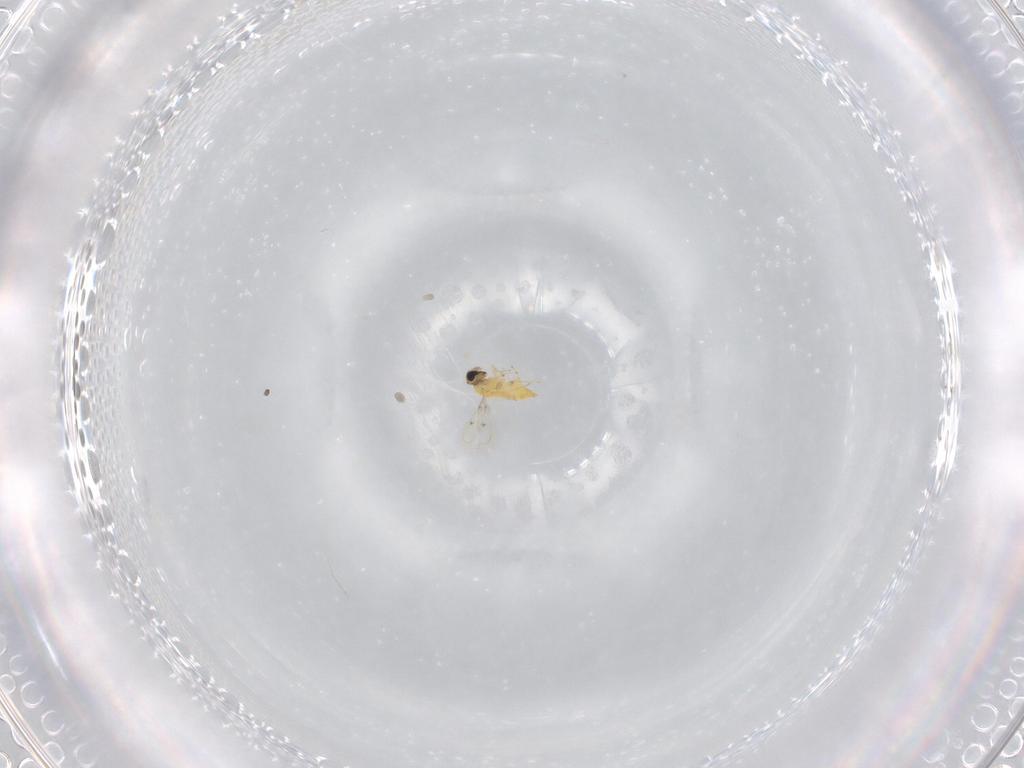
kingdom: Animalia
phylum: Arthropoda
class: Insecta
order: Hymenoptera
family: Trichogrammatidae
